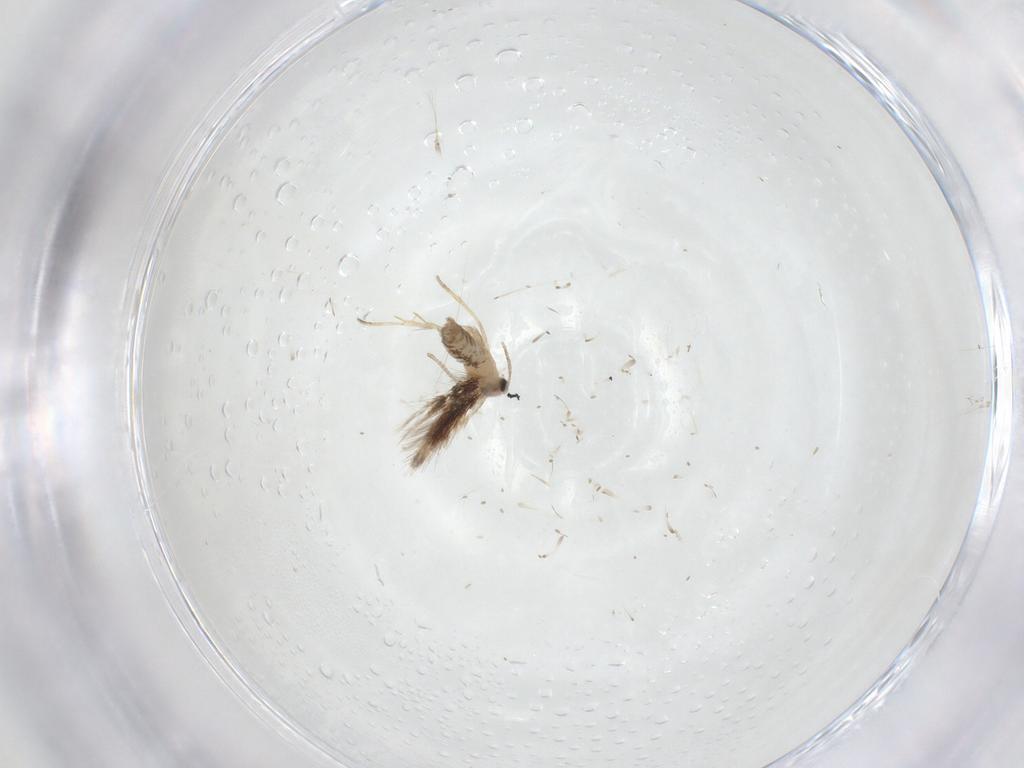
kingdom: Animalia
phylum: Arthropoda
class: Insecta
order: Lepidoptera
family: Nepticulidae
